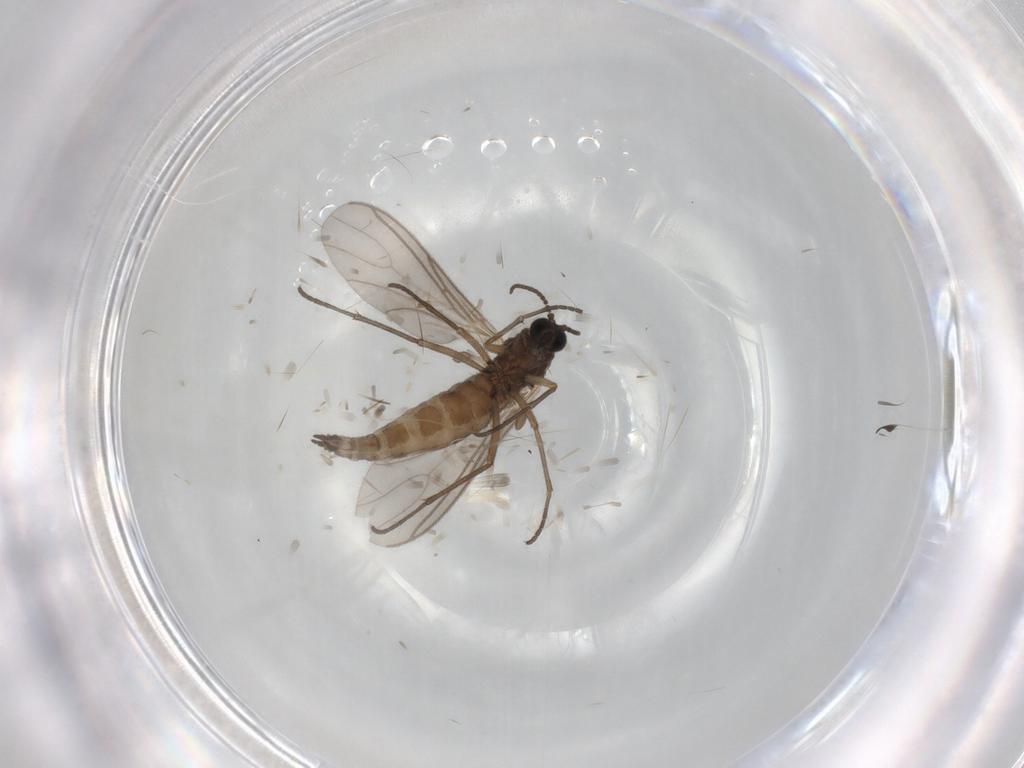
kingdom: Animalia
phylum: Arthropoda
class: Insecta
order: Diptera
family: Sciaridae
